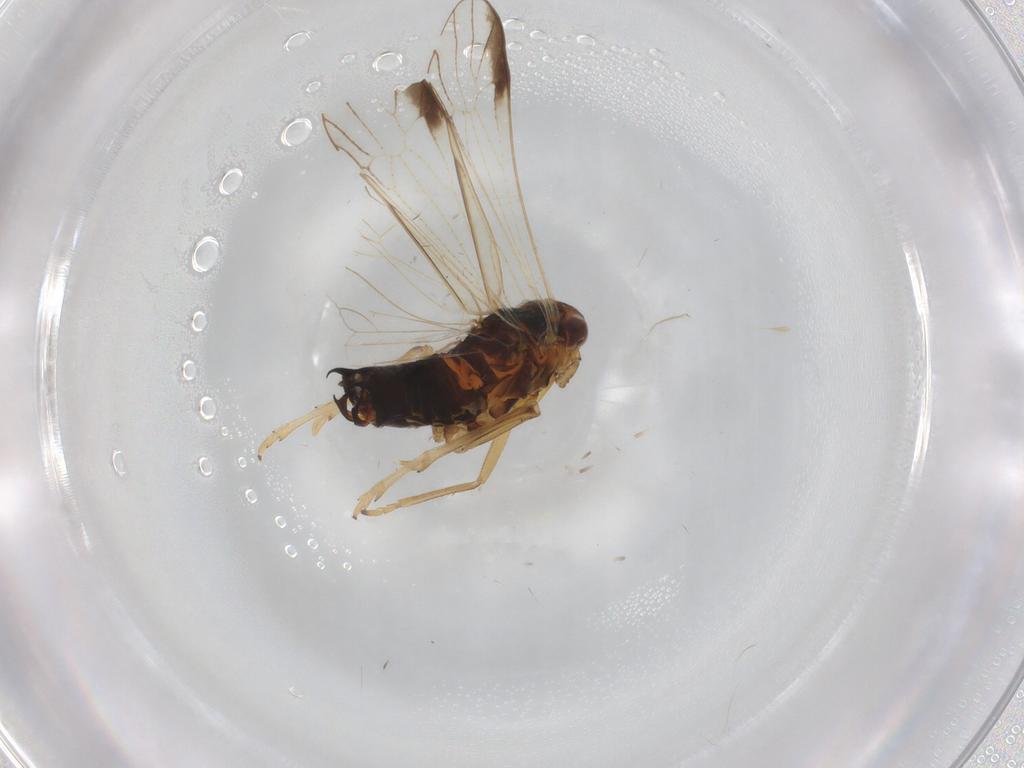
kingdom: Animalia
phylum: Arthropoda
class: Insecta
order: Hemiptera
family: Delphacidae
